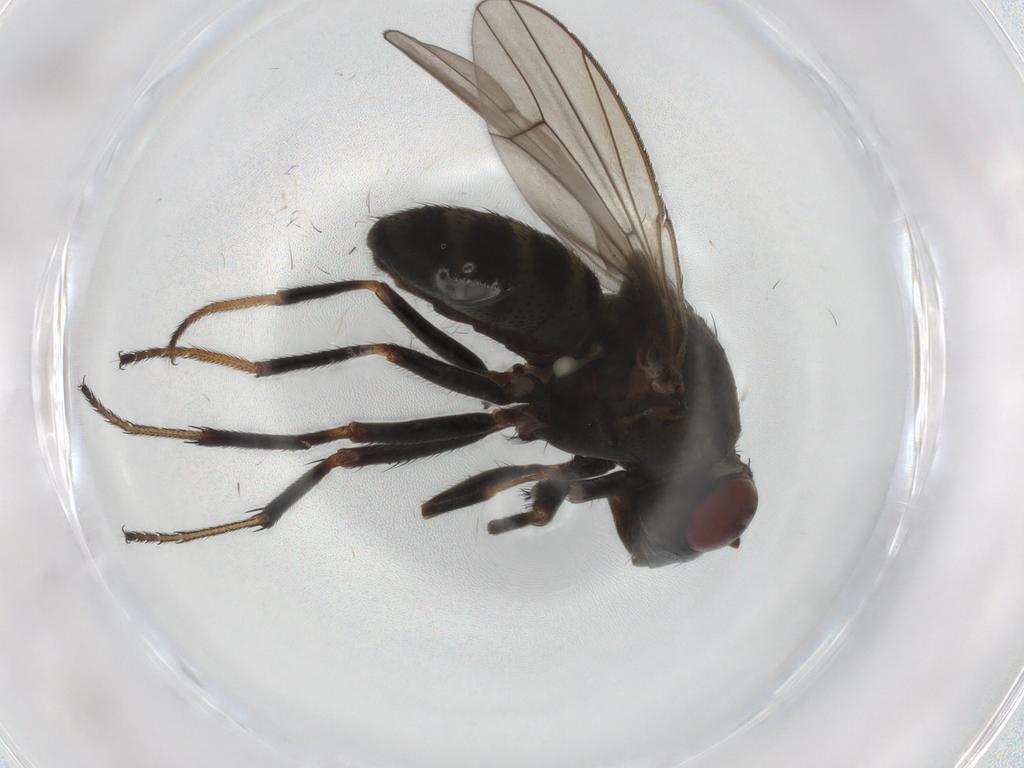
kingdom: Animalia
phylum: Arthropoda
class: Insecta
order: Diptera
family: Ephydridae
